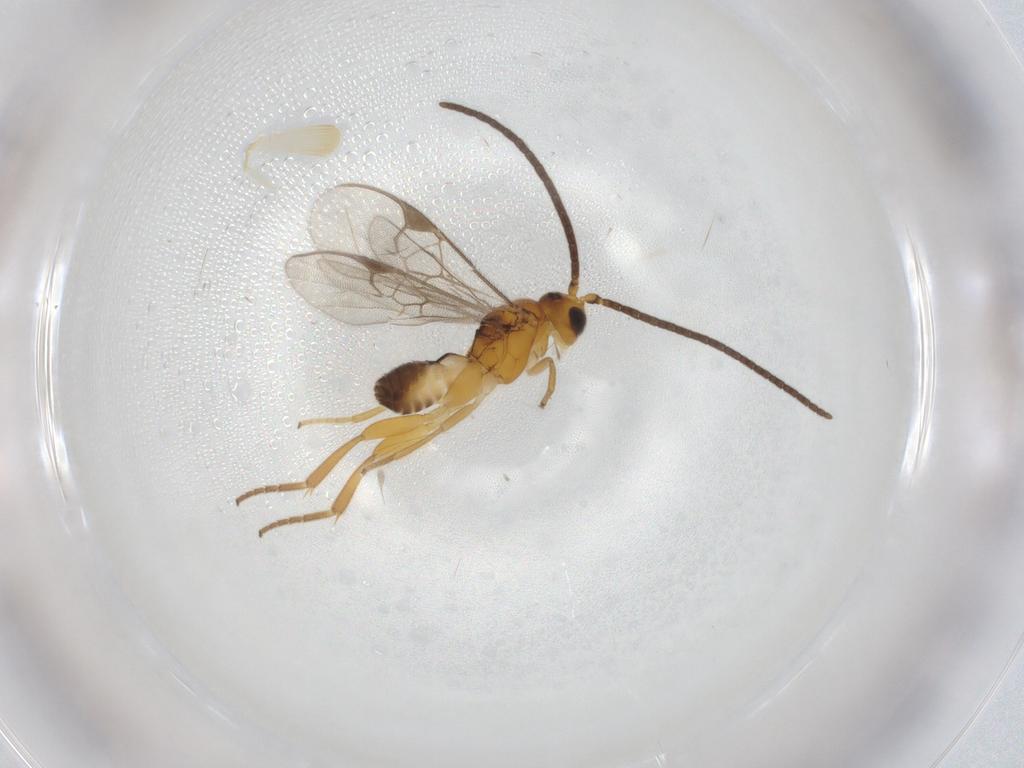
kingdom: Animalia
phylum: Arthropoda
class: Insecta
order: Hymenoptera
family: Braconidae
